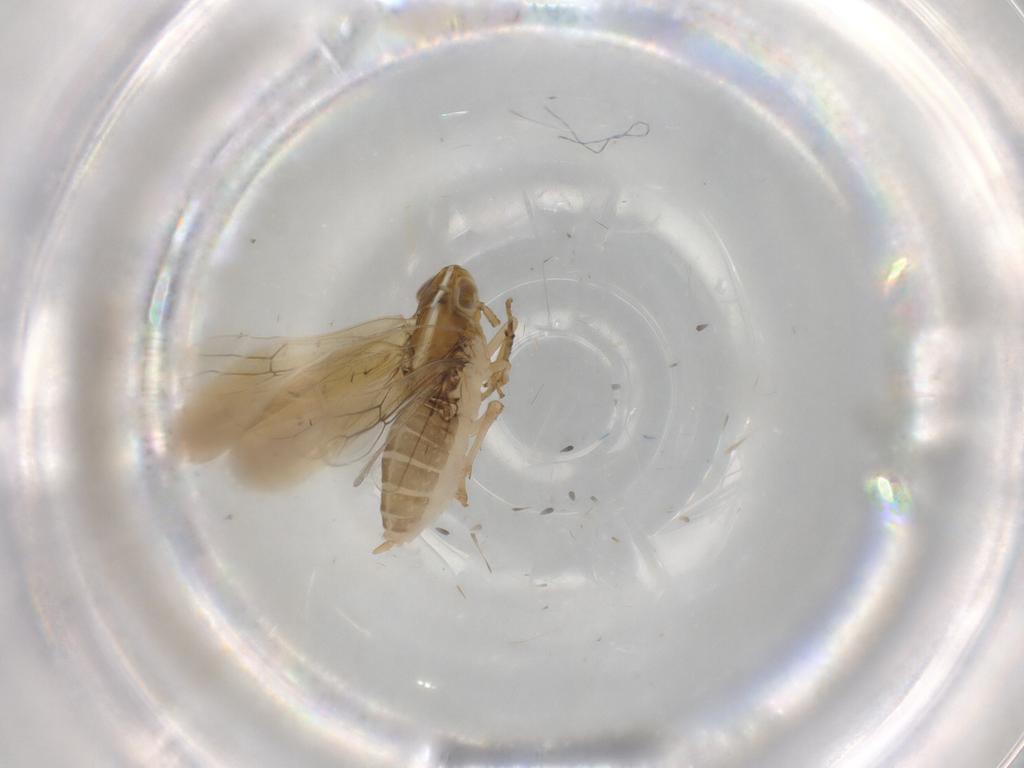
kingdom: Animalia
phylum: Arthropoda
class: Insecta
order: Hemiptera
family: Delphacidae
